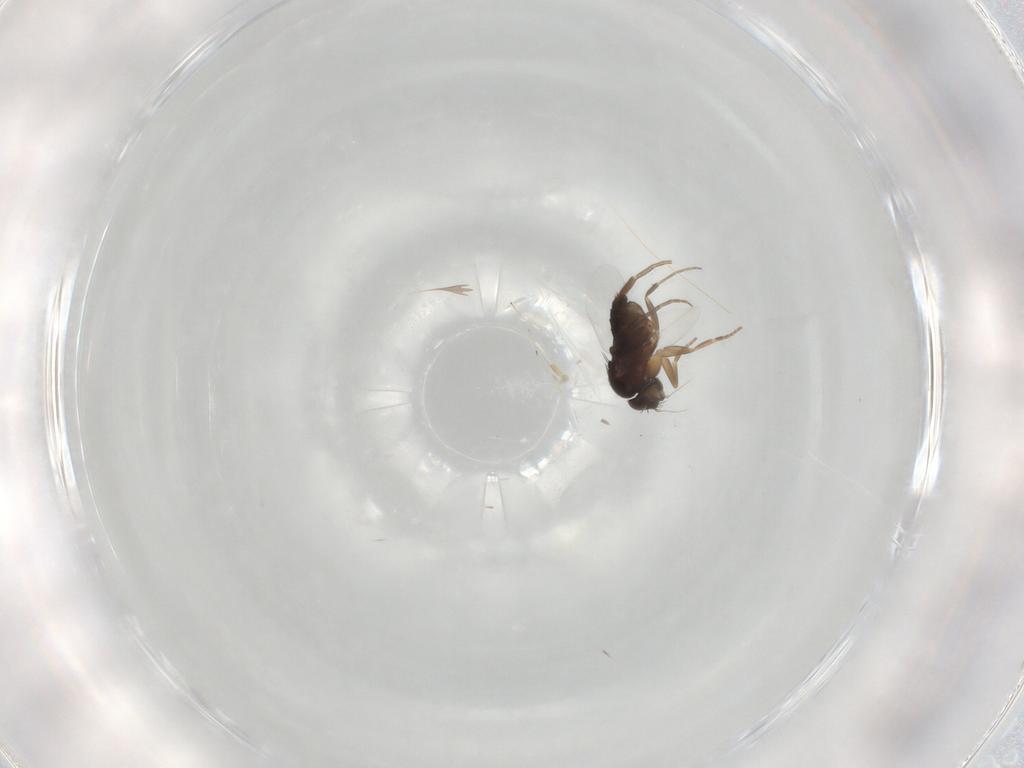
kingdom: Animalia
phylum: Arthropoda
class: Insecta
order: Diptera
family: Phoridae
